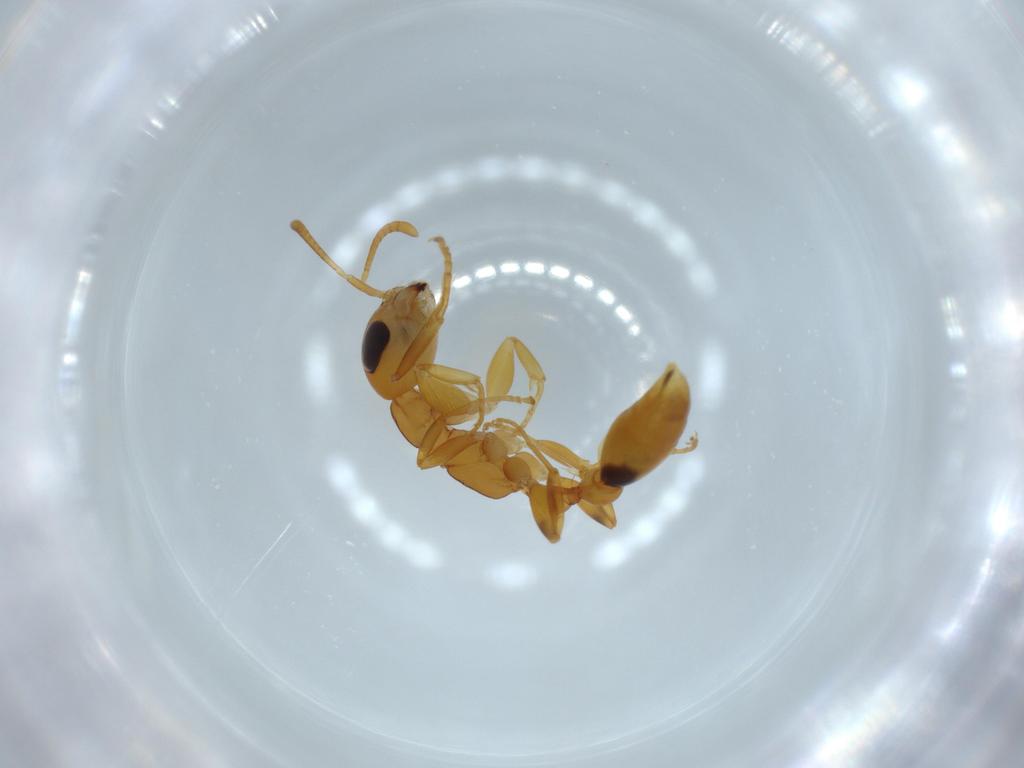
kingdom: Animalia
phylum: Arthropoda
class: Insecta
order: Hymenoptera
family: Formicidae
